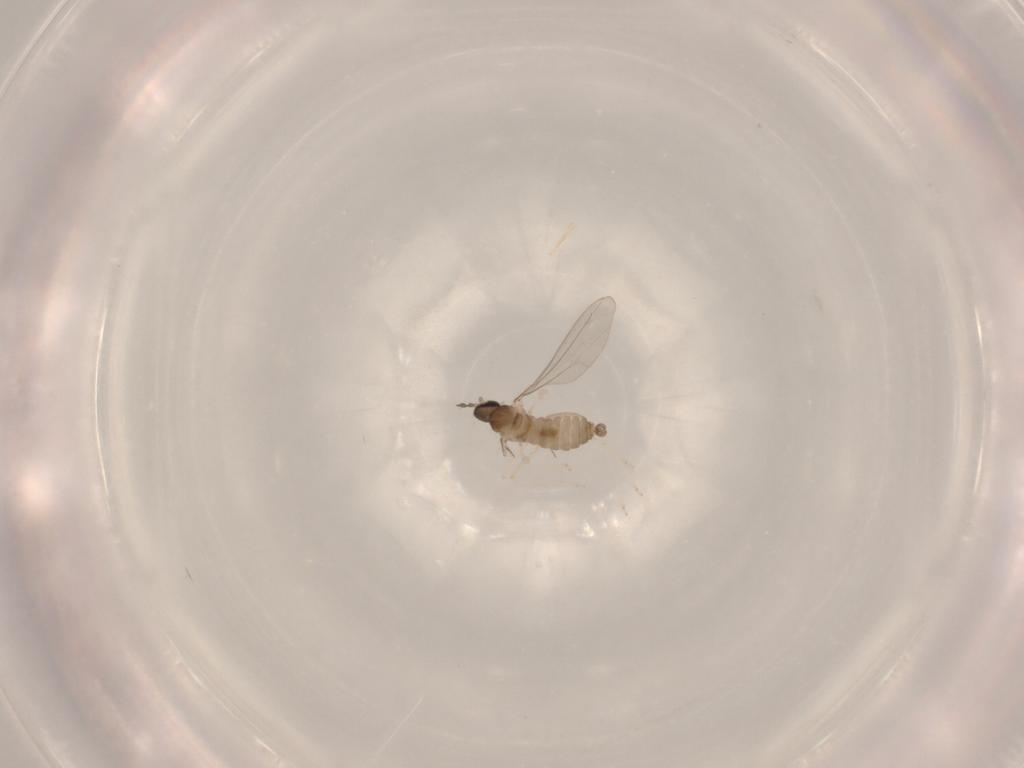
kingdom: Animalia
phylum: Arthropoda
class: Insecta
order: Diptera
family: Cecidomyiidae
